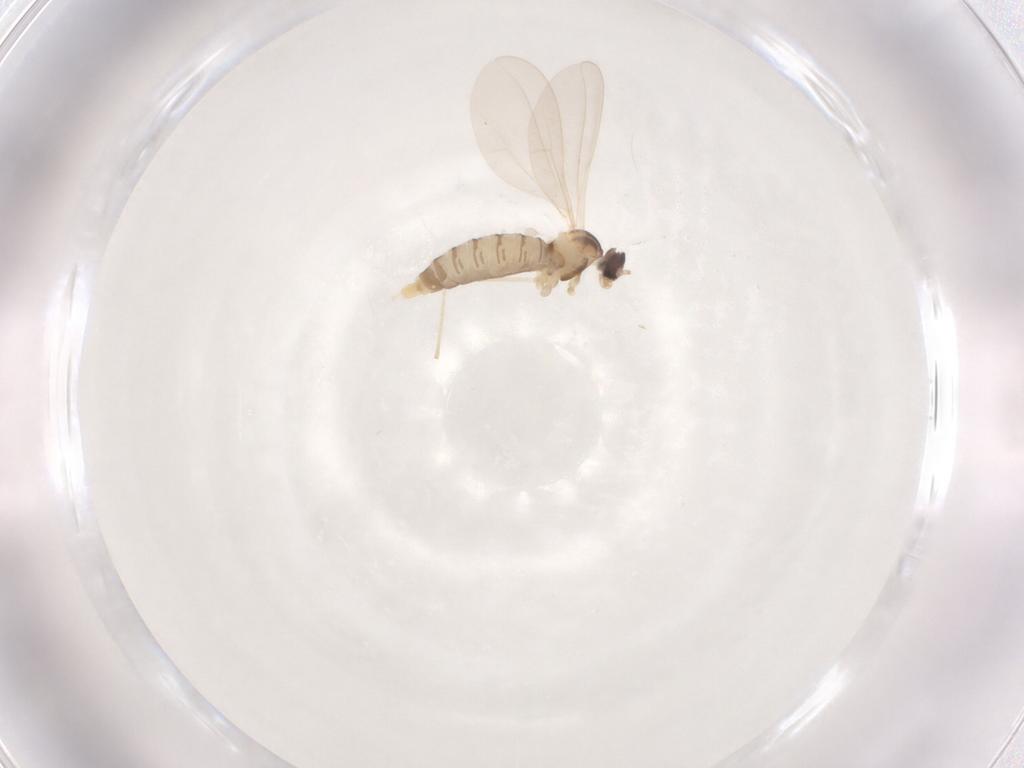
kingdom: Animalia
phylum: Arthropoda
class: Insecta
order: Diptera
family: Cecidomyiidae
